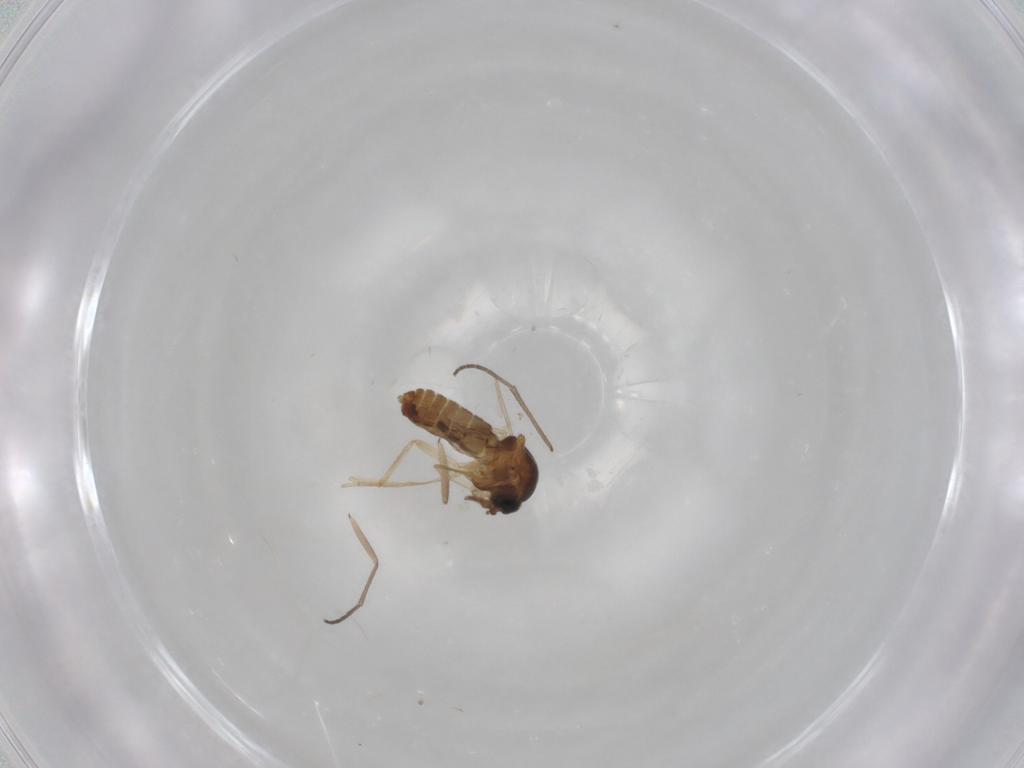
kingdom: Animalia
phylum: Arthropoda
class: Insecta
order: Diptera
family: Ceratopogonidae
